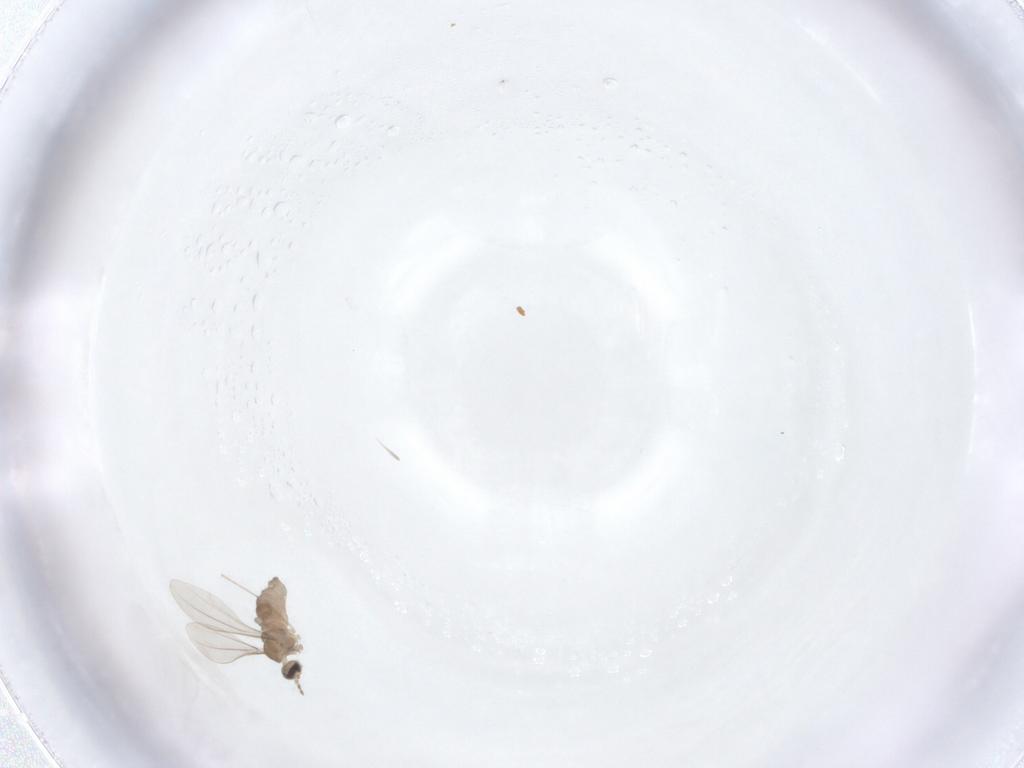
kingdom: Animalia
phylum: Arthropoda
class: Insecta
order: Diptera
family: Cecidomyiidae
